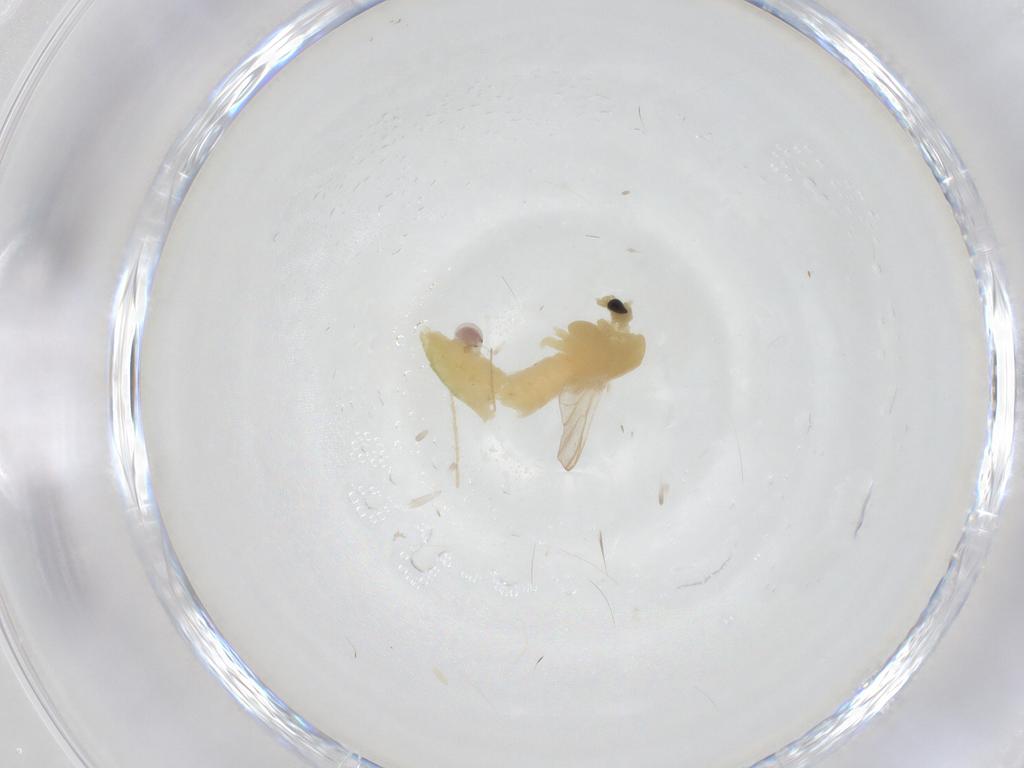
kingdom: Animalia
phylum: Arthropoda
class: Insecta
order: Diptera
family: Chironomidae
